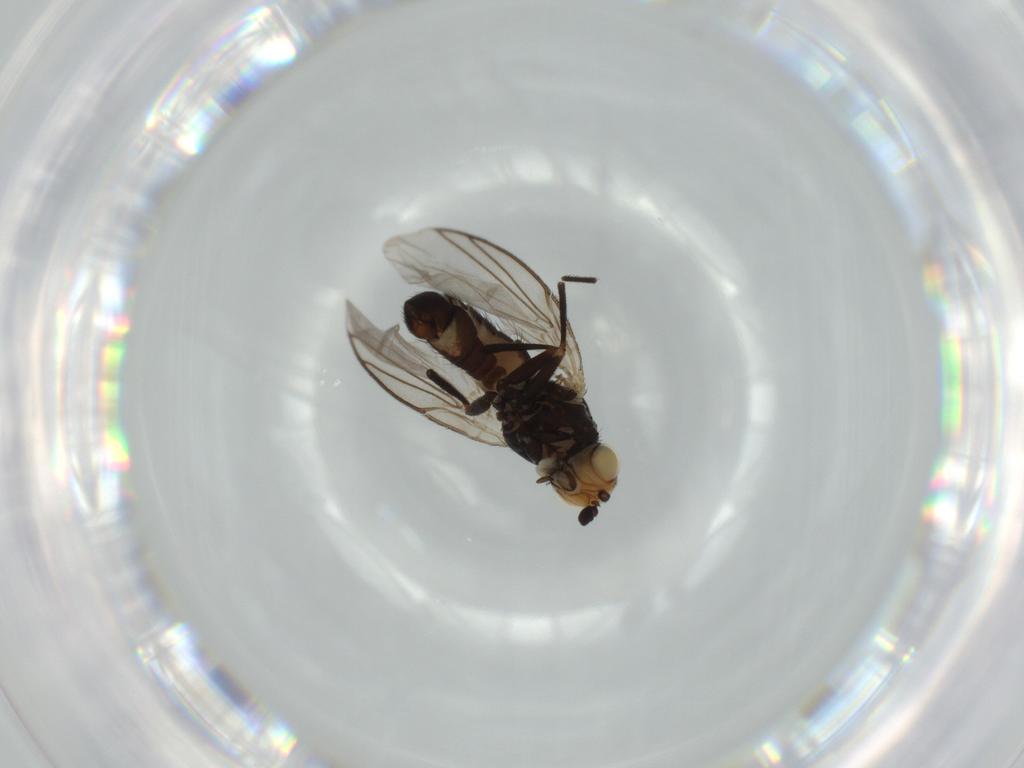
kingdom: Animalia
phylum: Arthropoda
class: Insecta
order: Diptera
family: Agromyzidae
